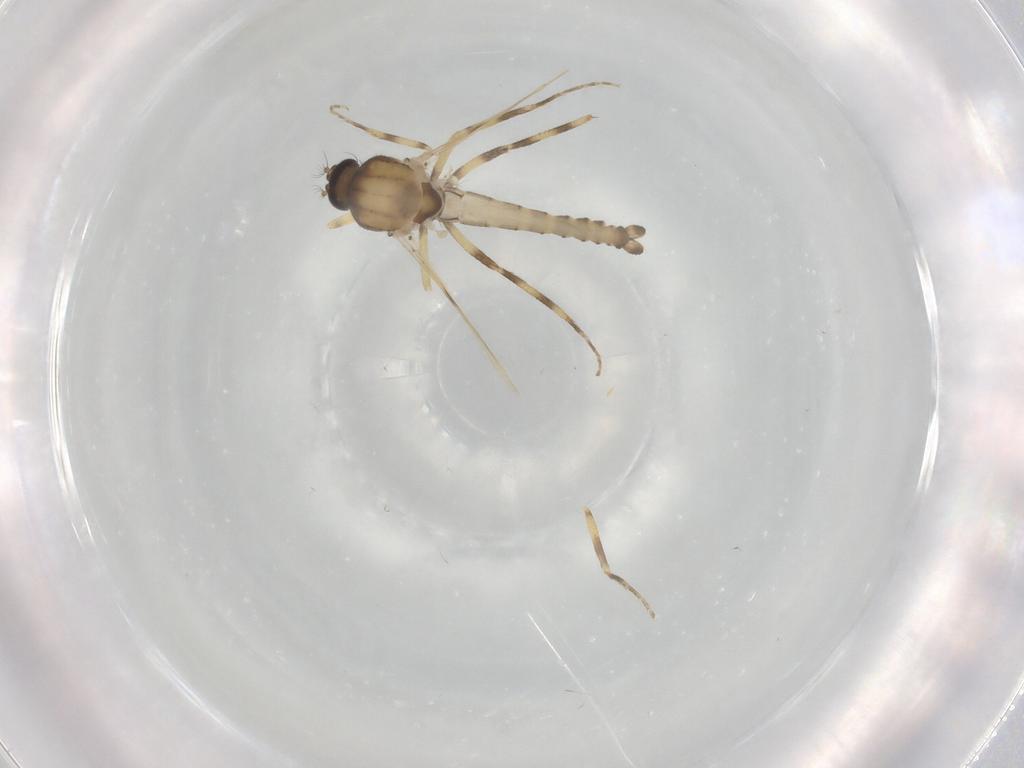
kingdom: Animalia
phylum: Arthropoda
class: Insecta
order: Diptera
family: Ceratopogonidae
